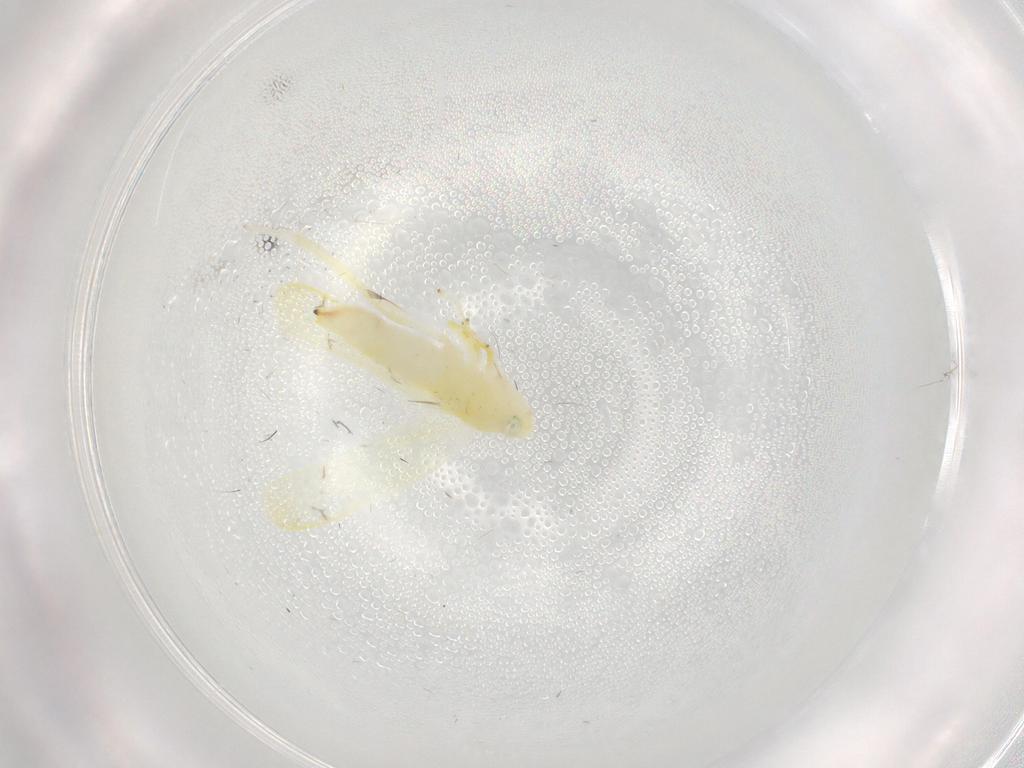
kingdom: Animalia
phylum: Arthropoda
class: Insecta
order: Hemiptera
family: Cicadellidae
